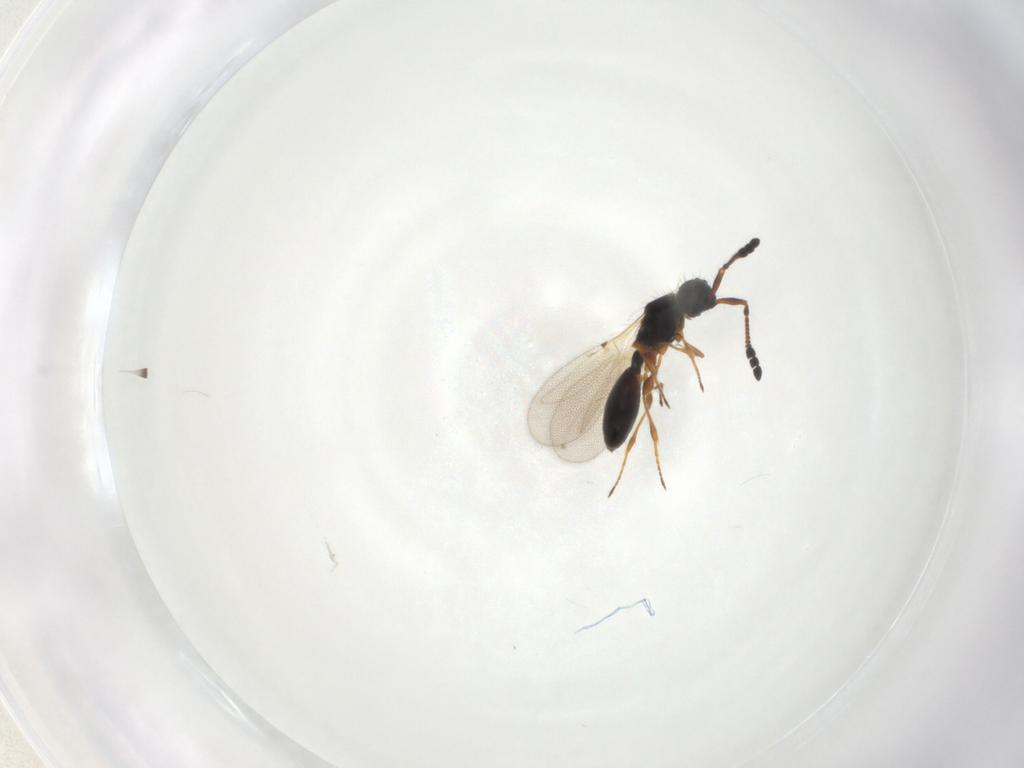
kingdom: Animalia
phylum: Arthropoda
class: Insecta
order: Hymenoptera
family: Diapriidae
